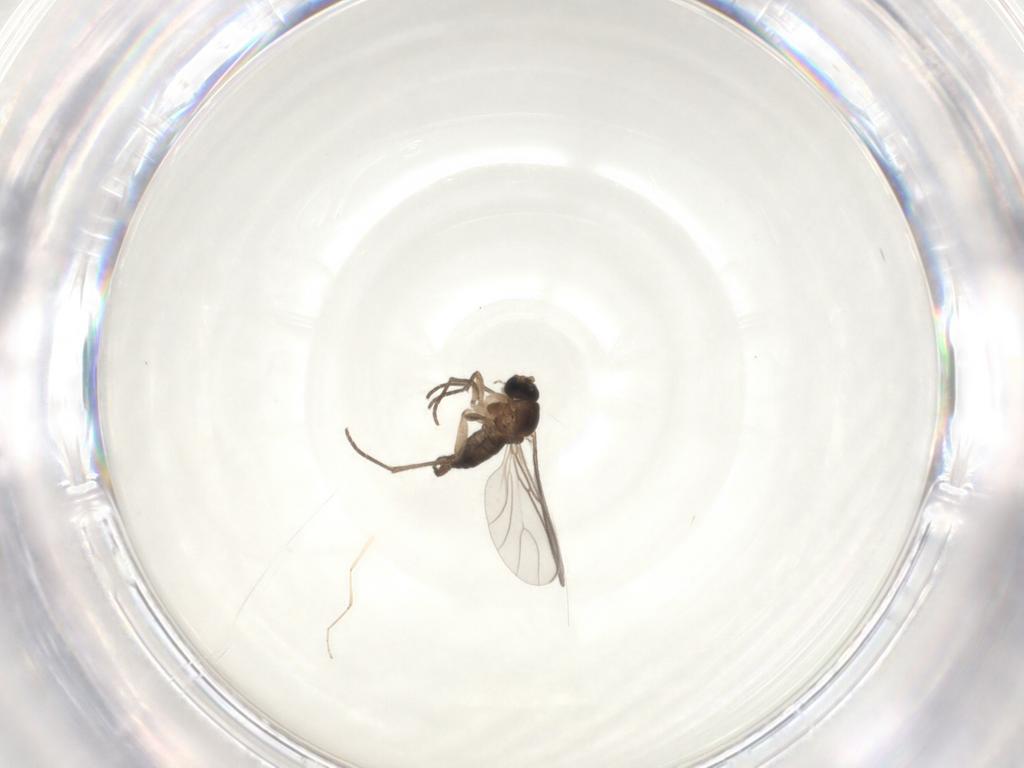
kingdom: Animalia
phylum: Arthropoda
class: Insecta
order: Diptera
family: Sciaridae
